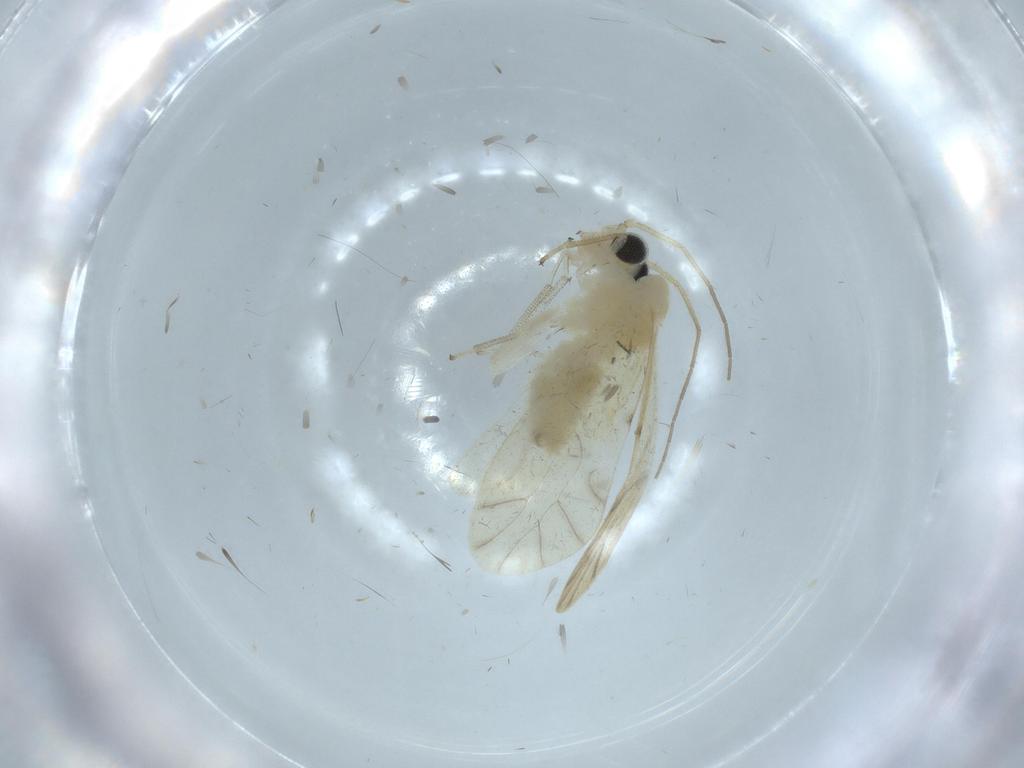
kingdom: Animalia
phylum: Arthropoda
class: Insecta
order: Psocodea
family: Caeciliusidae
